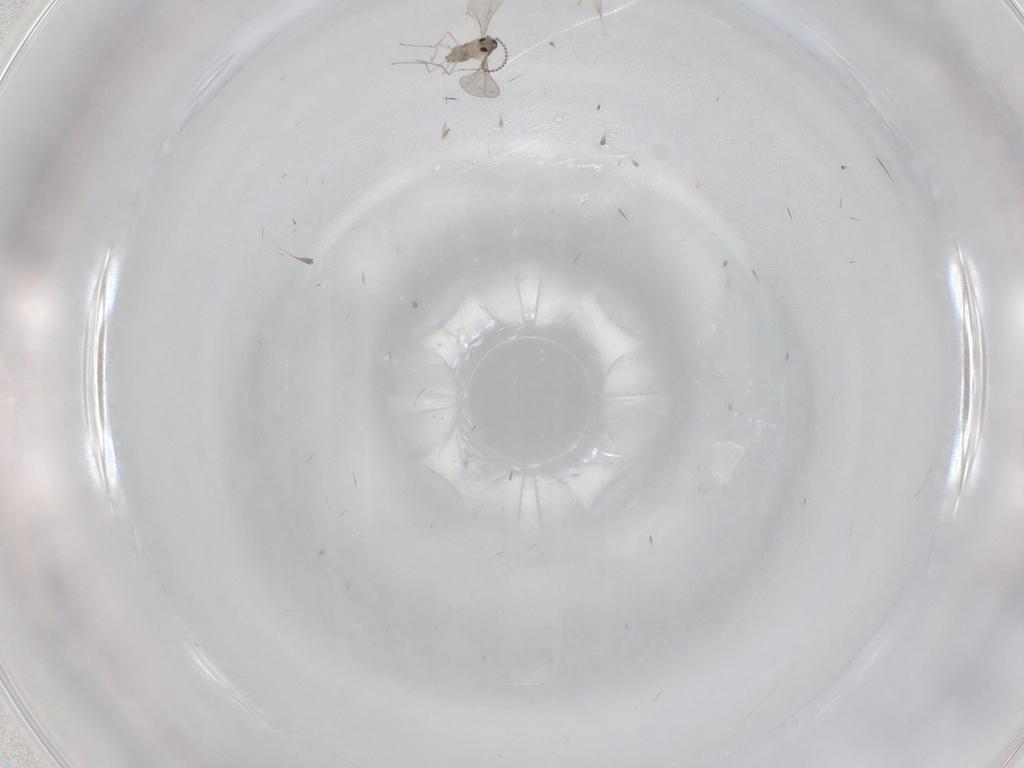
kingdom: Animalia
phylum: Arthropoda
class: Insecta
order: Diptera
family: Cecidomyiidae
